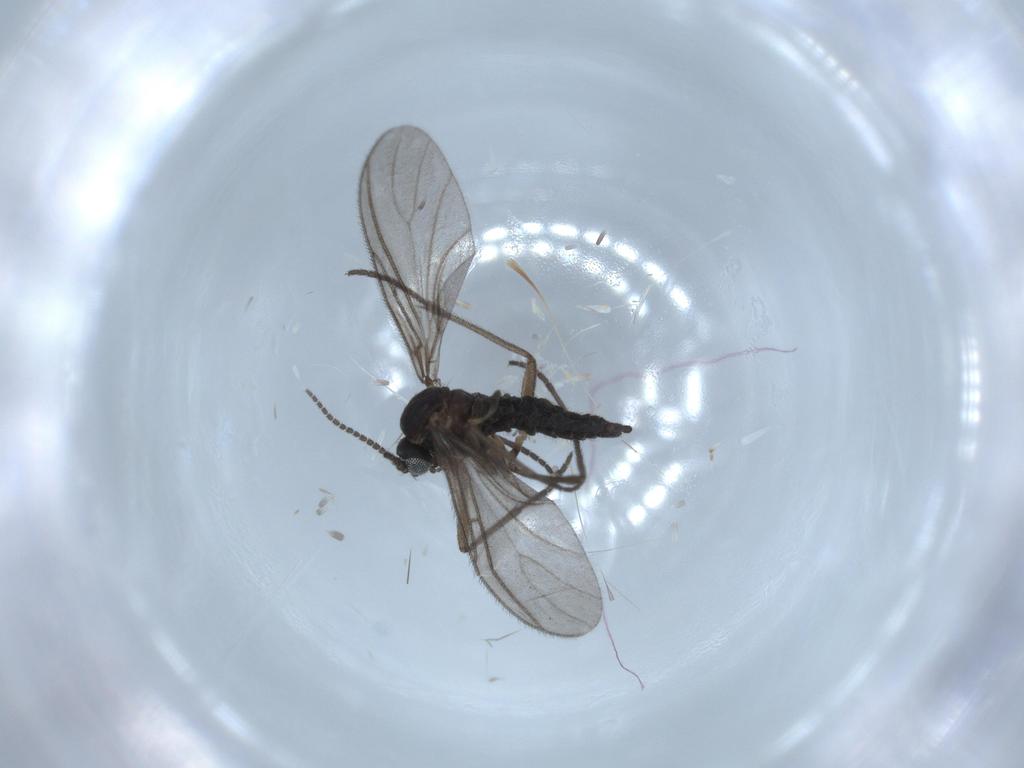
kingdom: Animalia
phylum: Arthropoda
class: Insecta
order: Diptera
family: Sciaridae
